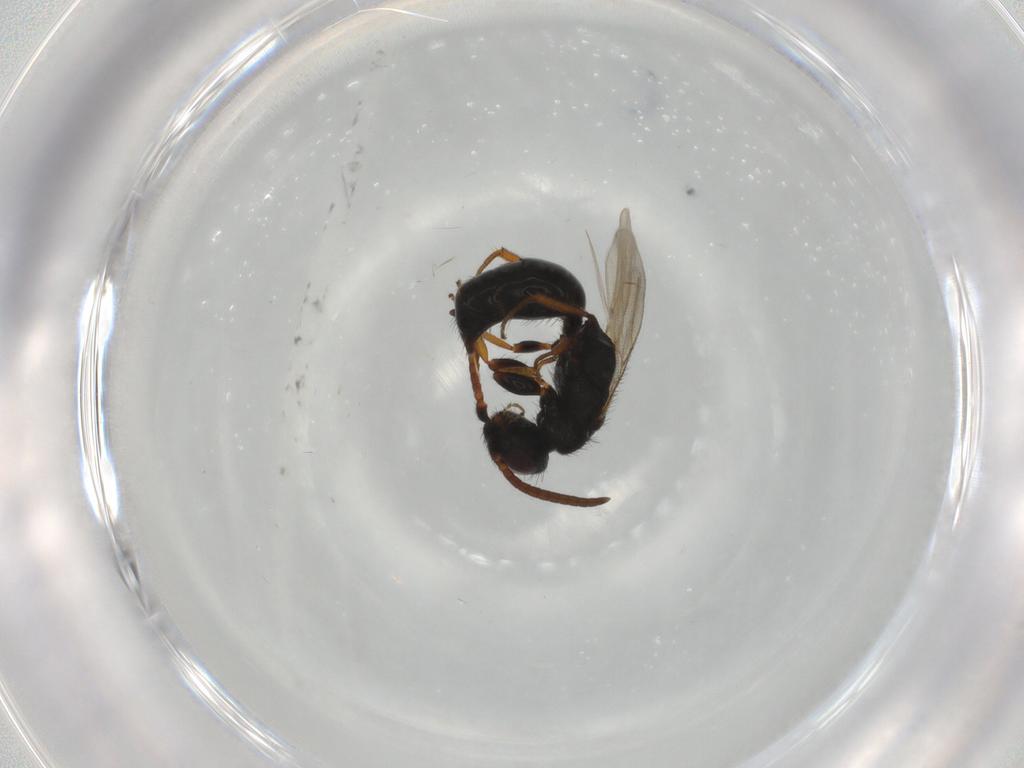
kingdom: Animalia
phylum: Arthropoda
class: Insecta
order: Hymenoptera
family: Bethylidae
